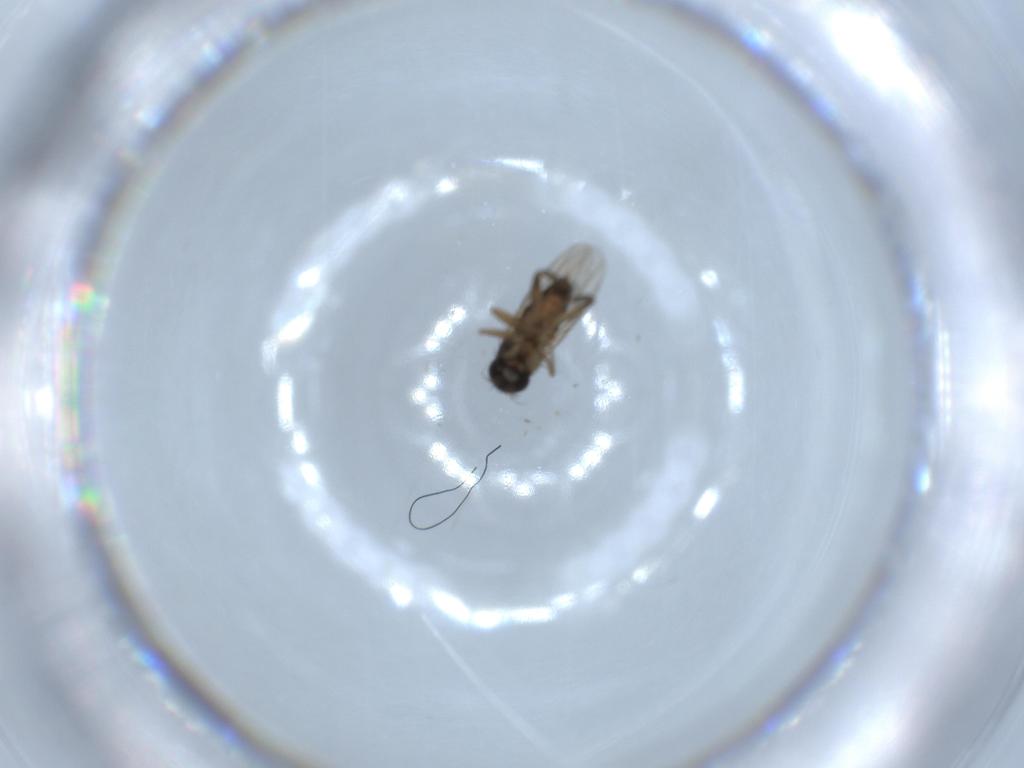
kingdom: Animalia
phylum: Arthropoda
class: Insecta
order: Diptera
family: Phoridae
